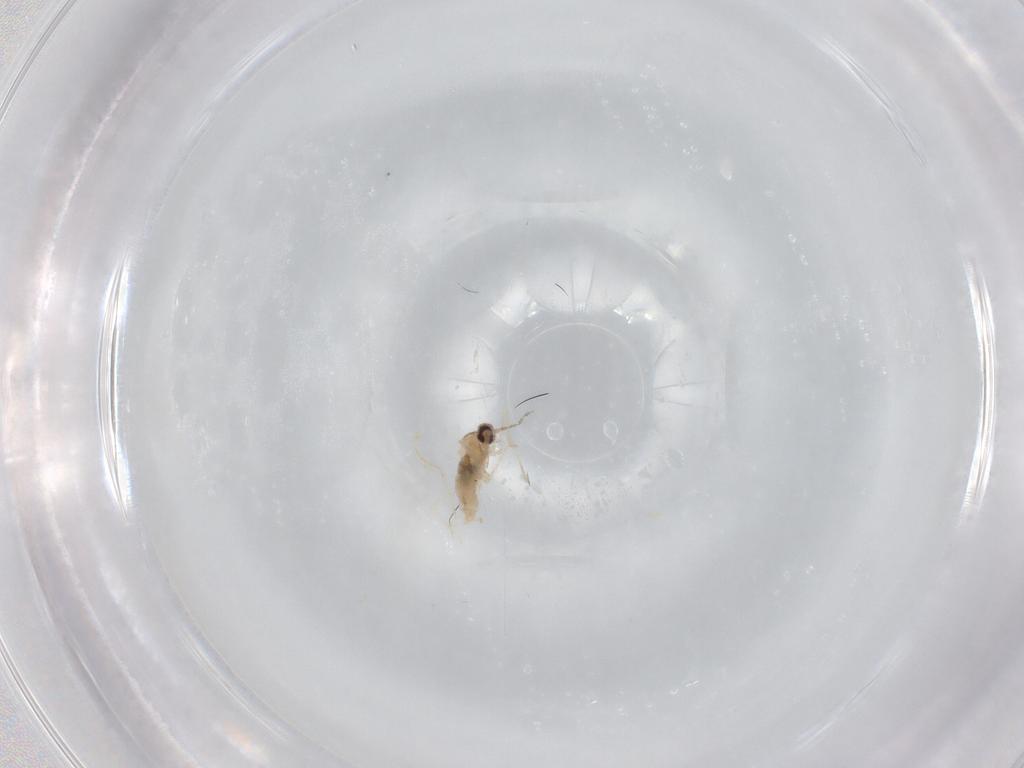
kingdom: Animalia
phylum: Arthropoda
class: Insecta
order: Diptera
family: Cecidomyiidae
